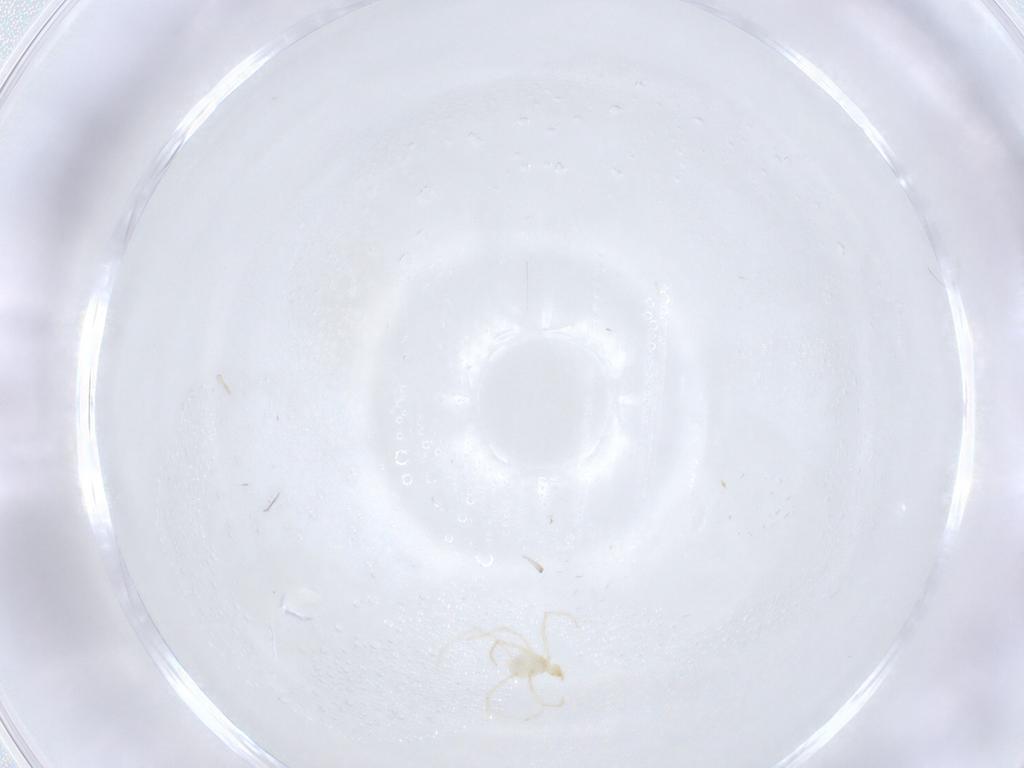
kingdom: Animalia
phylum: Arthropoda
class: Arachnida
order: Trombidiformes
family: Erythraeidae
